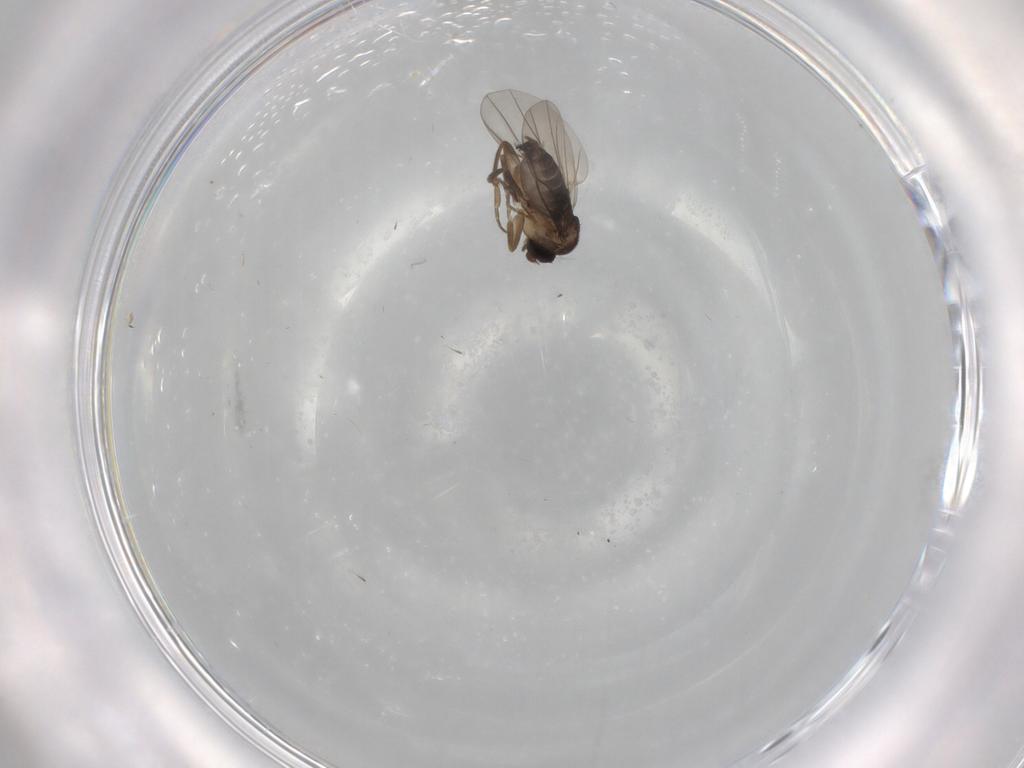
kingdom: Animalia
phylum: Arthropoda
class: Insecta
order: Diptera
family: Drosophilidae
